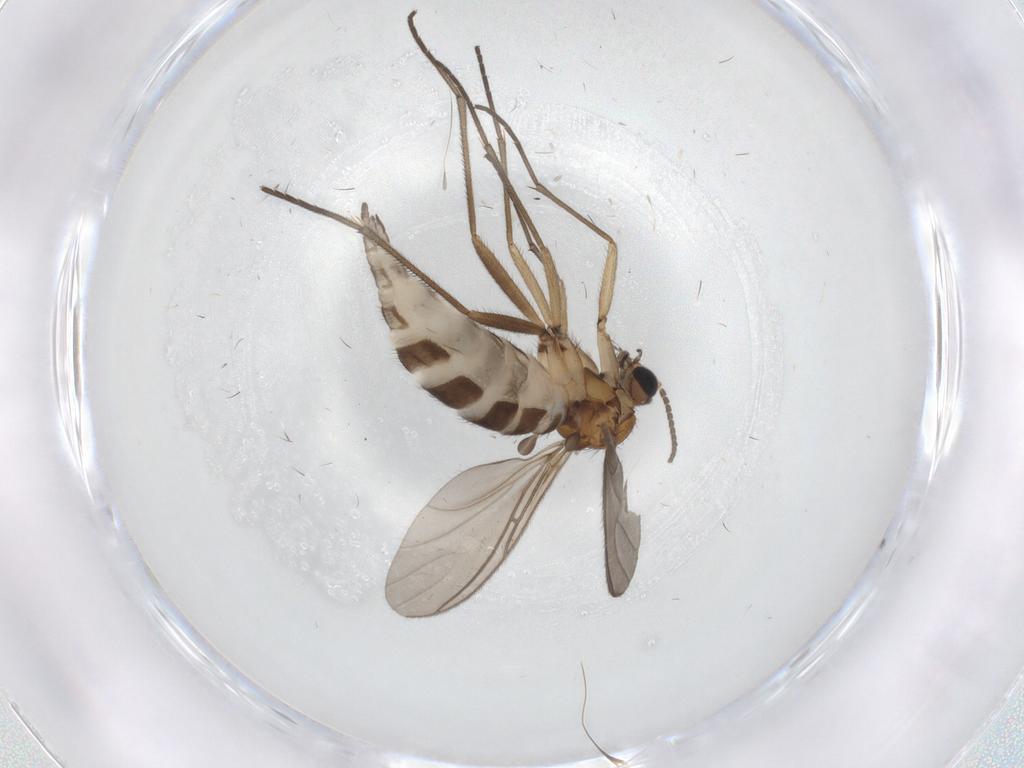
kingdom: Animalia
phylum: Arthropoda
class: Insecta
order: Diptera
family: Sciaridae
